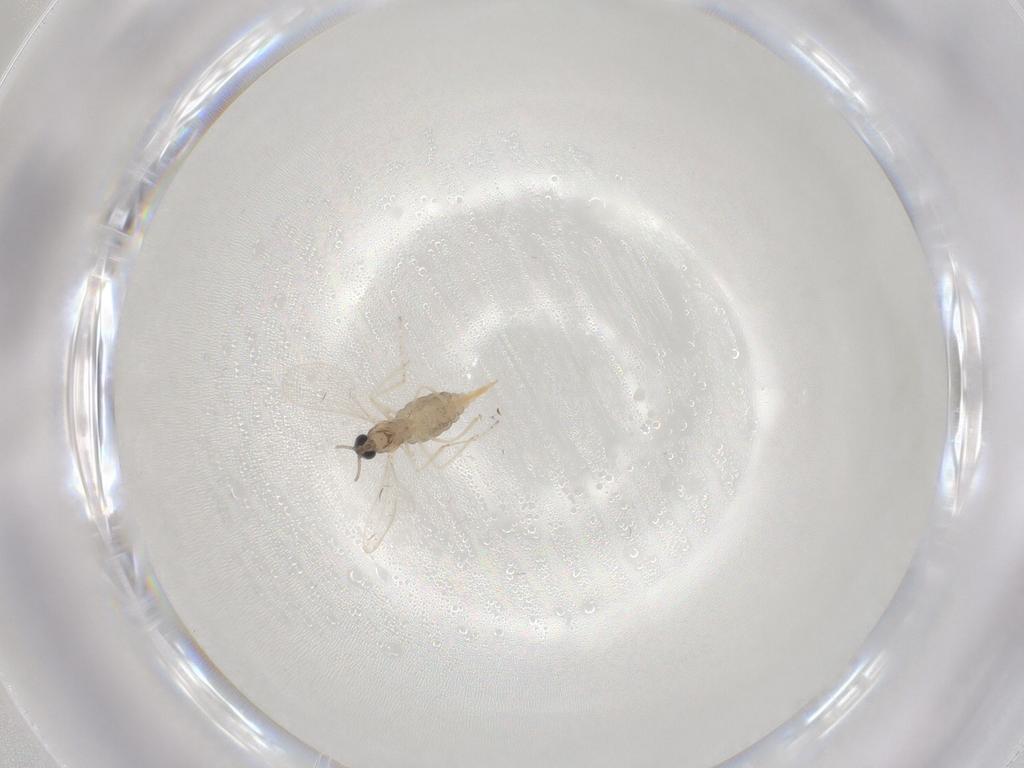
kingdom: Animalia
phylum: Arthropoda
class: Insecta
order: Diptera
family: Cecidomyiidae
